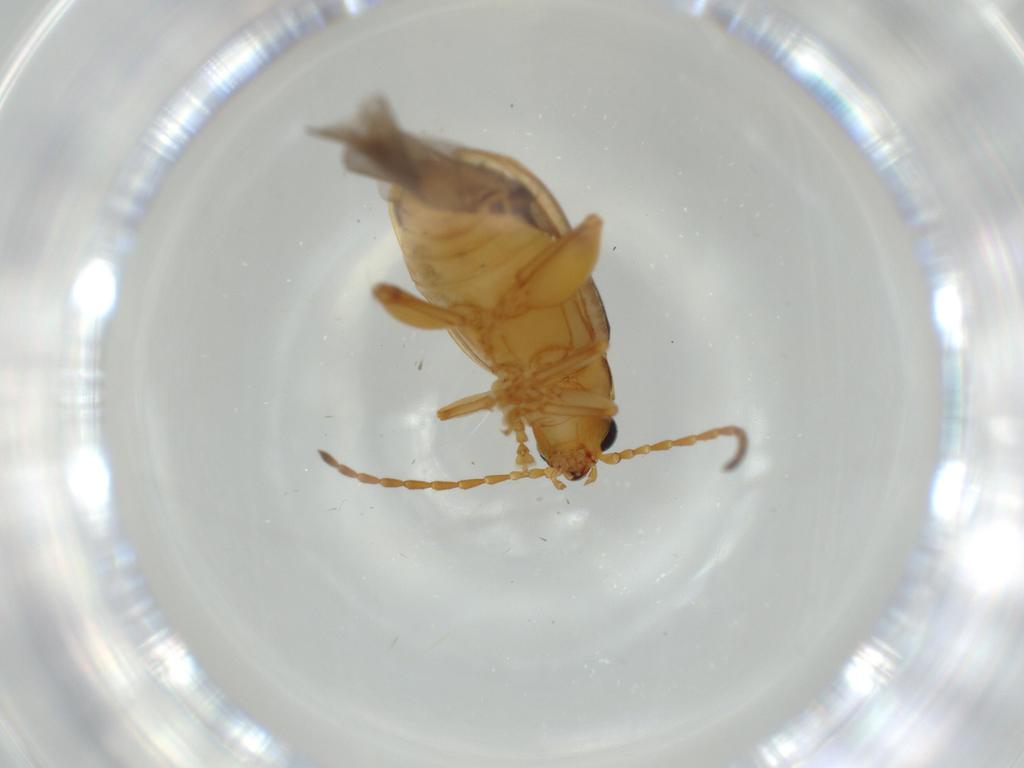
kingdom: Animalia
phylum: Arthropoda
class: Insecta
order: Coleoptera
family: Chrysomelidae
